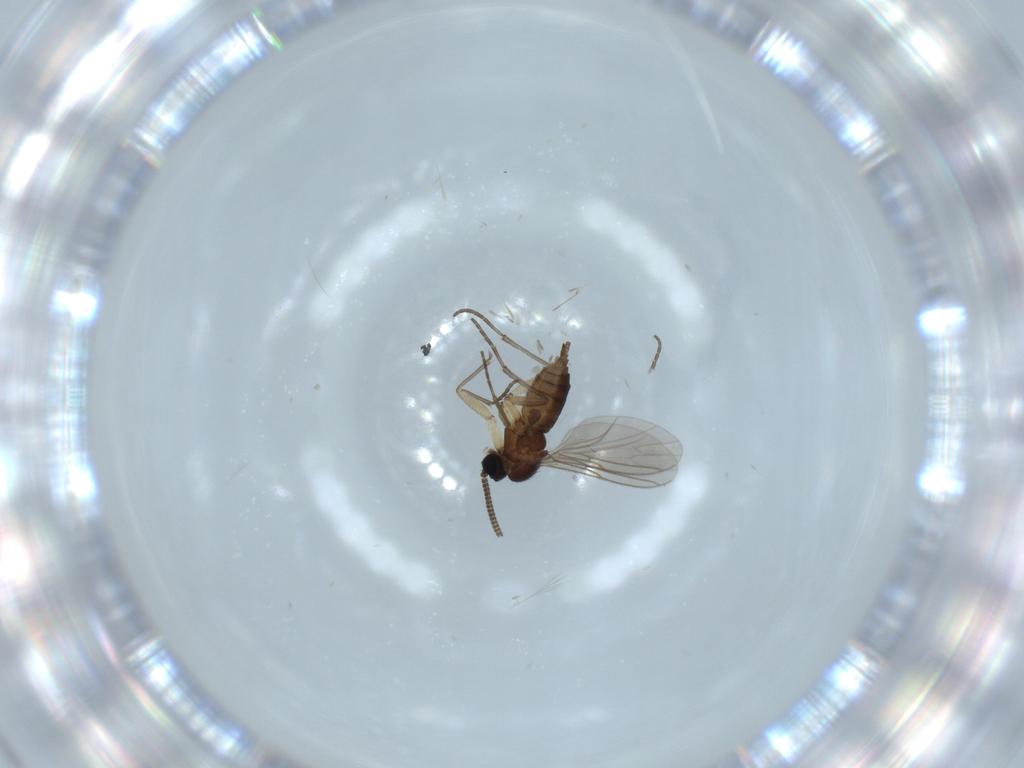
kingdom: Animalia
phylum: Arthropoda
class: Insecta
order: Diptera
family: Sciaridae
